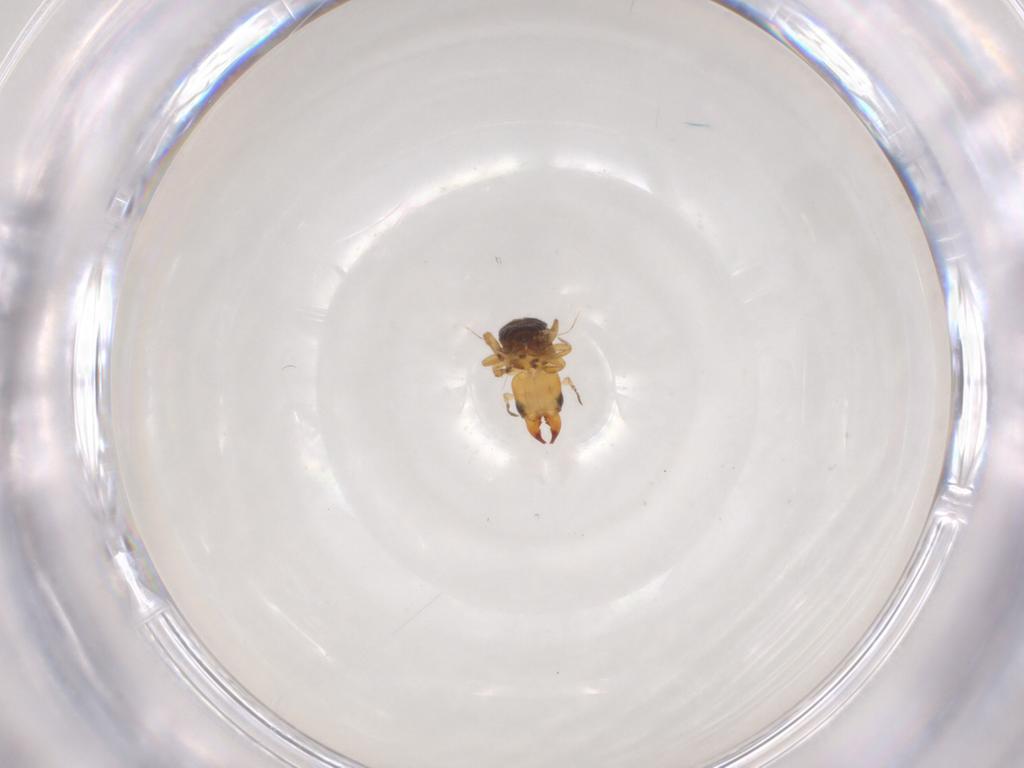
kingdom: Animalia
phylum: Arthropoda
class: Insecta
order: Hymenoptera
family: Pteromalidae
